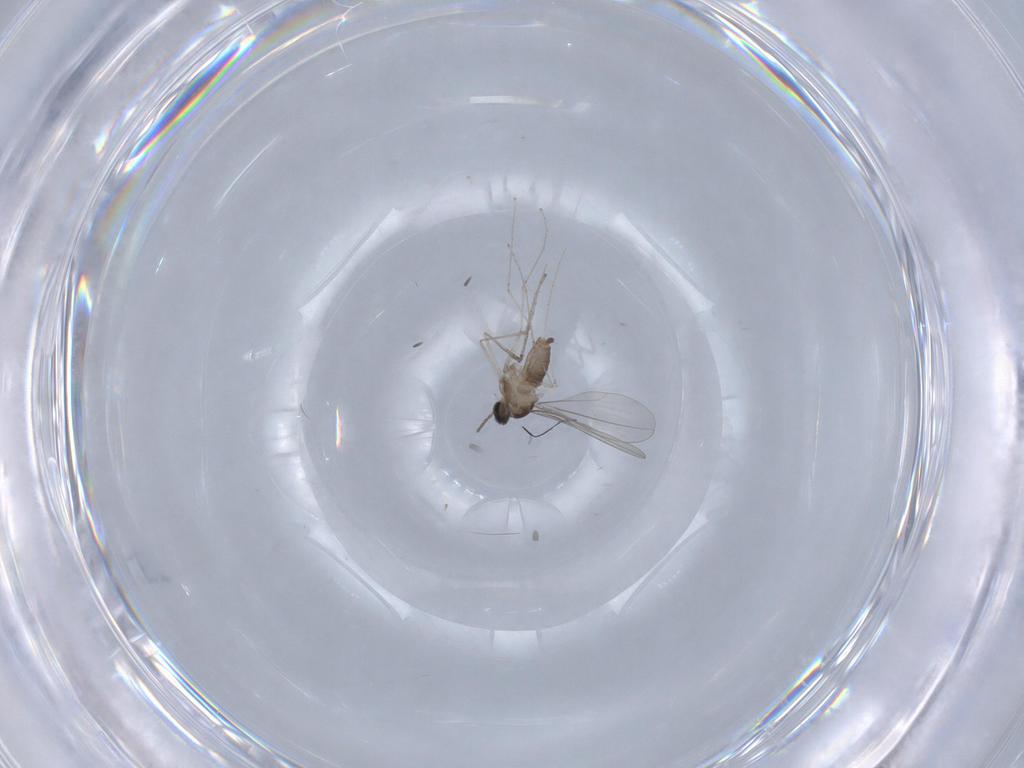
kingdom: Animalia
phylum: Arthropoda
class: Insecta
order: Diptera
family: Cecidomyiidae
